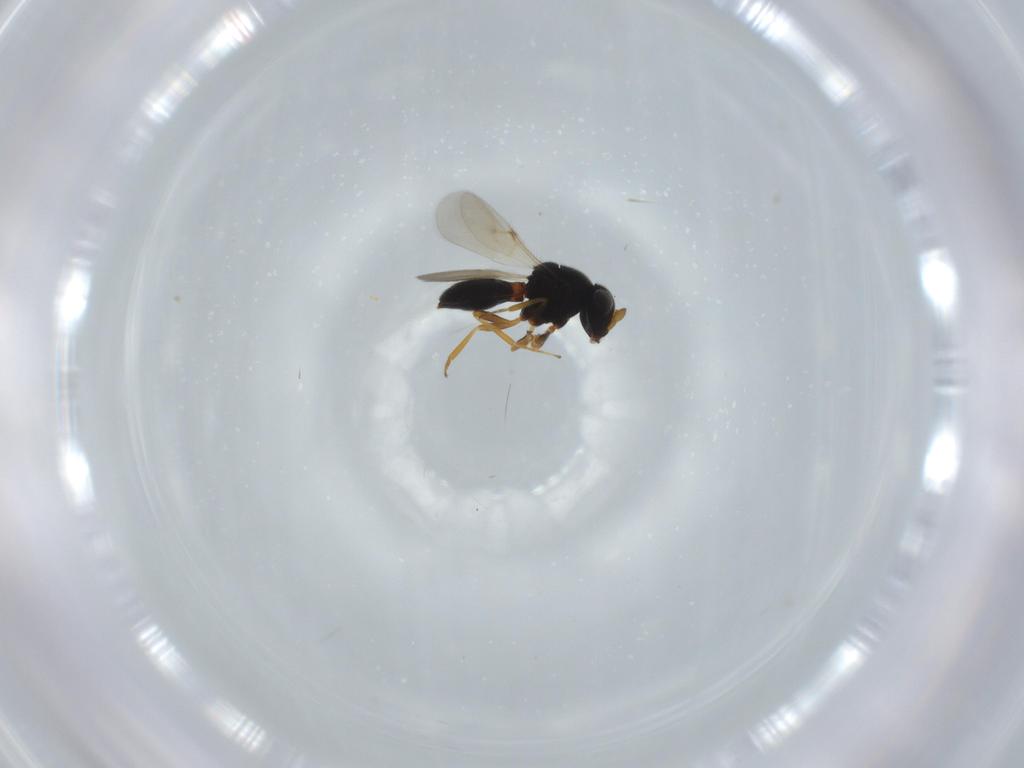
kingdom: Animalia
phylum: Arthropoda
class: Insecta
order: Hymenoptera
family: Scelionidae
